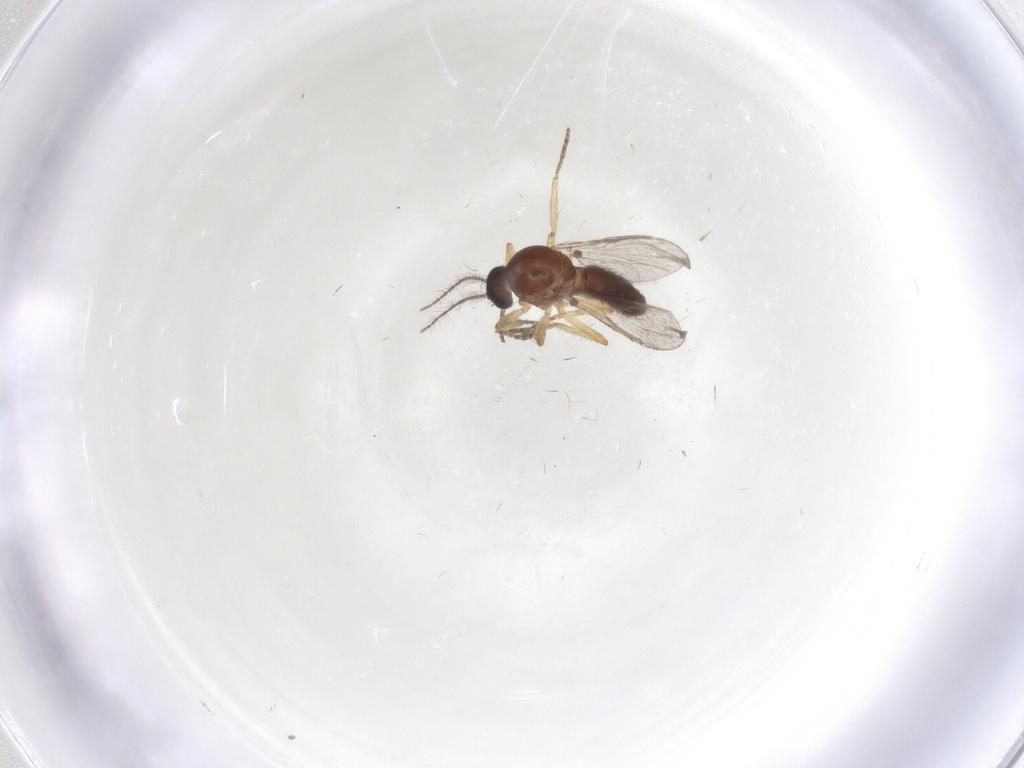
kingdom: Animalia
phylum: Arthropoda
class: Insecta
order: Diptera
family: Ceratopogonidae
